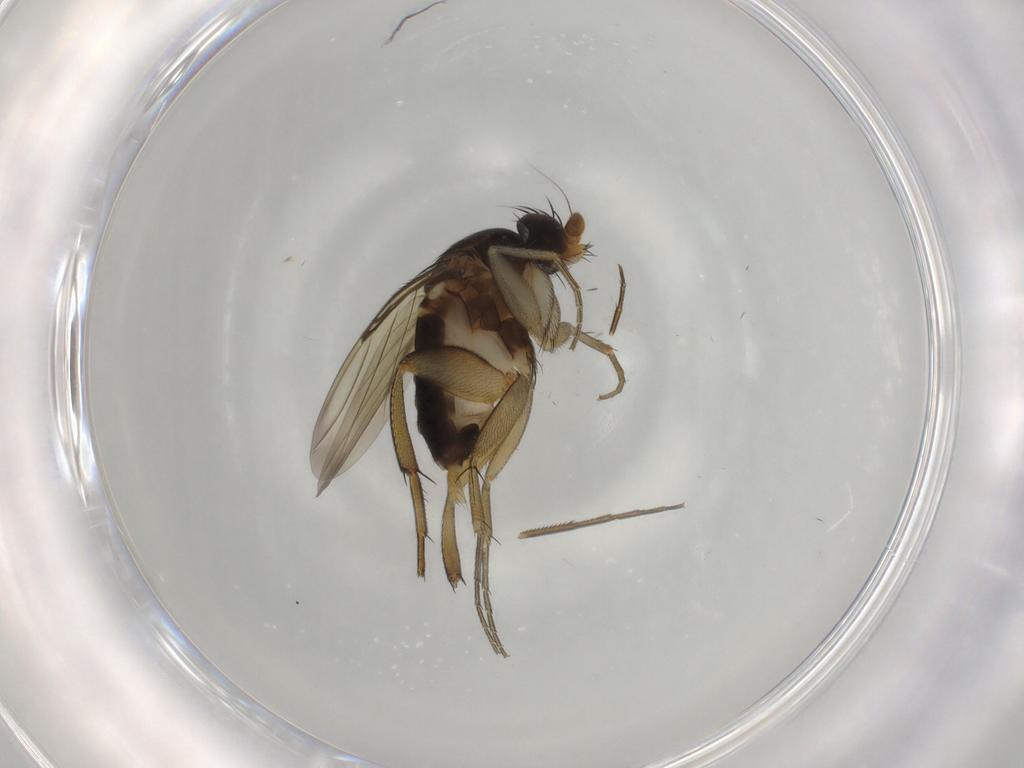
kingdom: Animalia
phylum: Arthropoda
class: Insecta
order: Diptera
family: Phoridae
